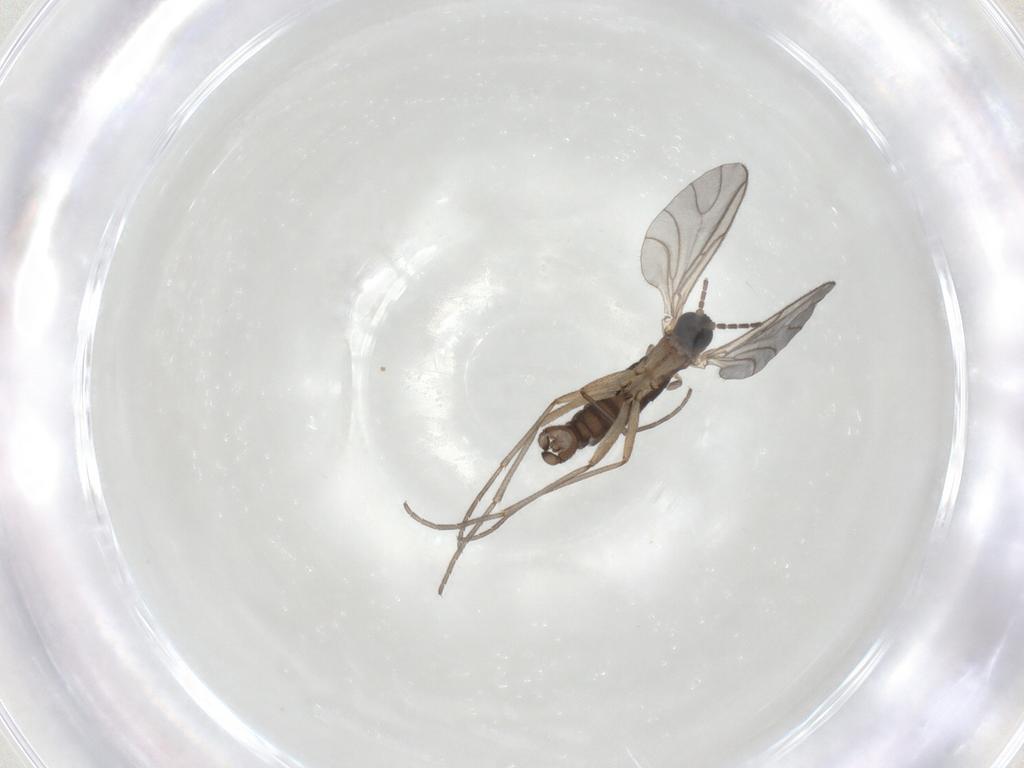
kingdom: Animalia
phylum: Arthropoda
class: Insecta
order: Diptera
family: Sciaridae
